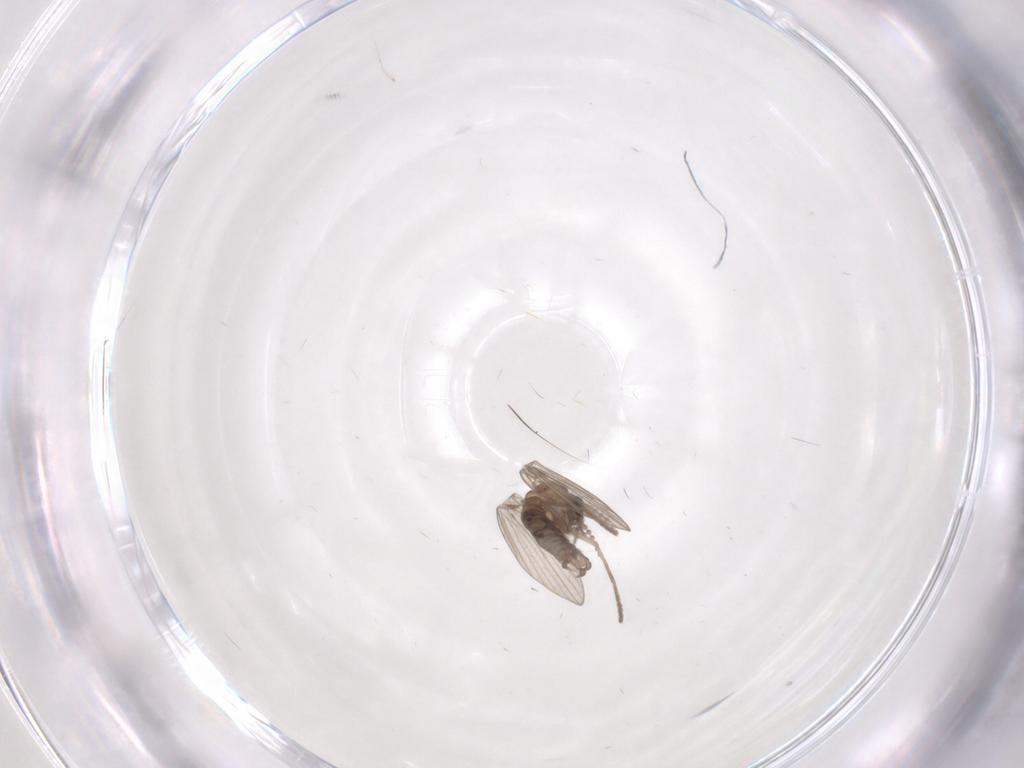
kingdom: Animalia
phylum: Arthropoda
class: Insecta
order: Diptera
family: Psychodidae
